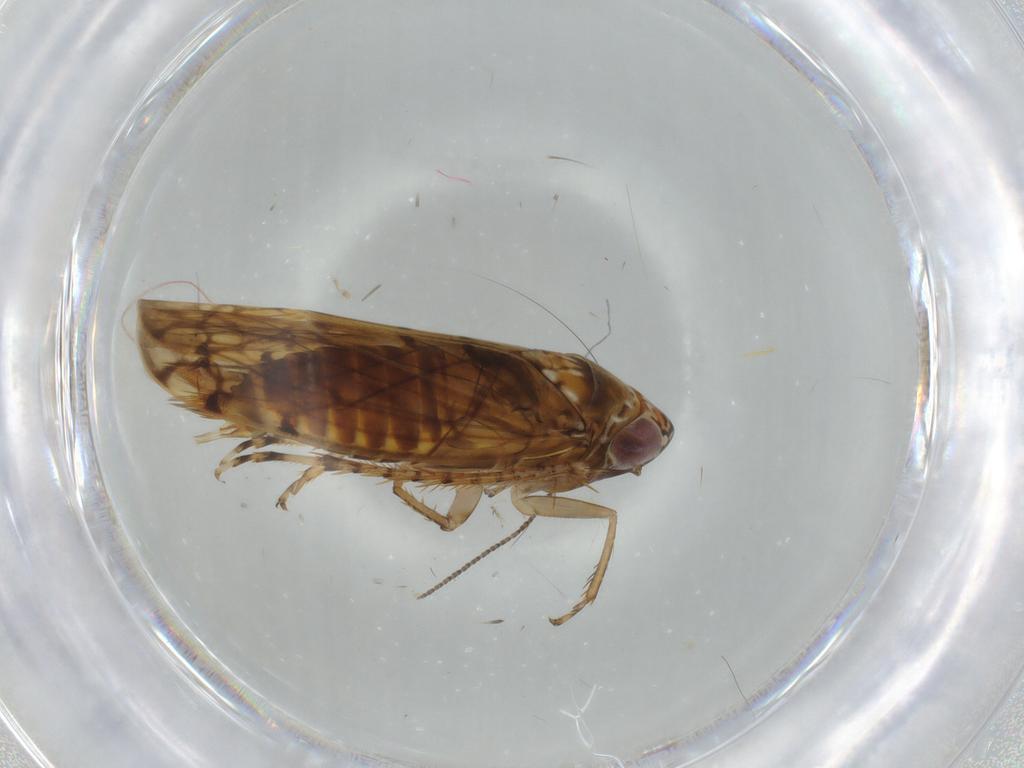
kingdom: Animalia
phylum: Arthropoda
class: Insecta
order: Hemiptera
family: Cicadellidae
